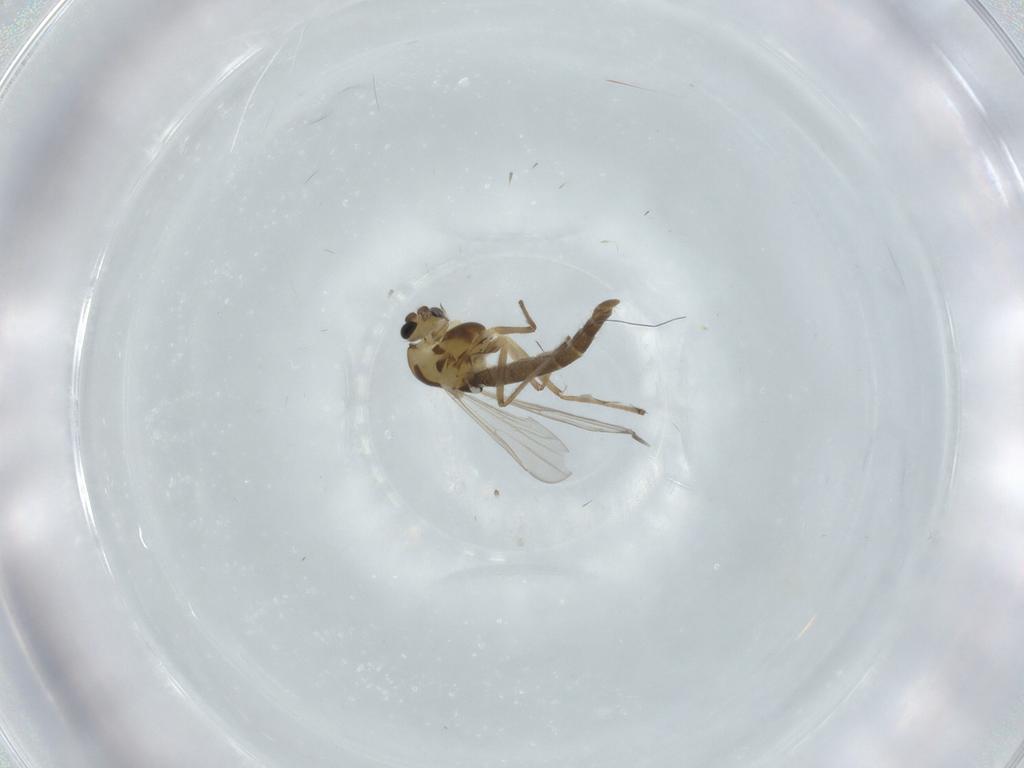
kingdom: Animalia
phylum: Arthropoda
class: Insecta
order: Diptera
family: Chironomidae
